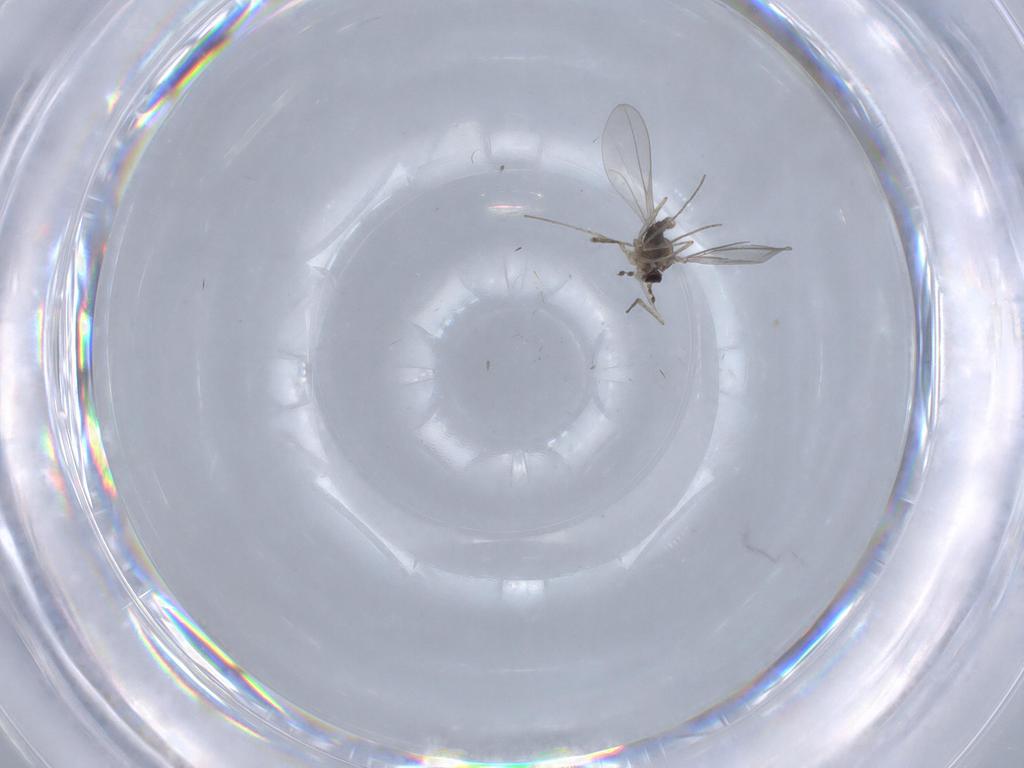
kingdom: Animalia
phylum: Arthropoda
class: Insecta
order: Diptera
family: Cecidomyiidae
